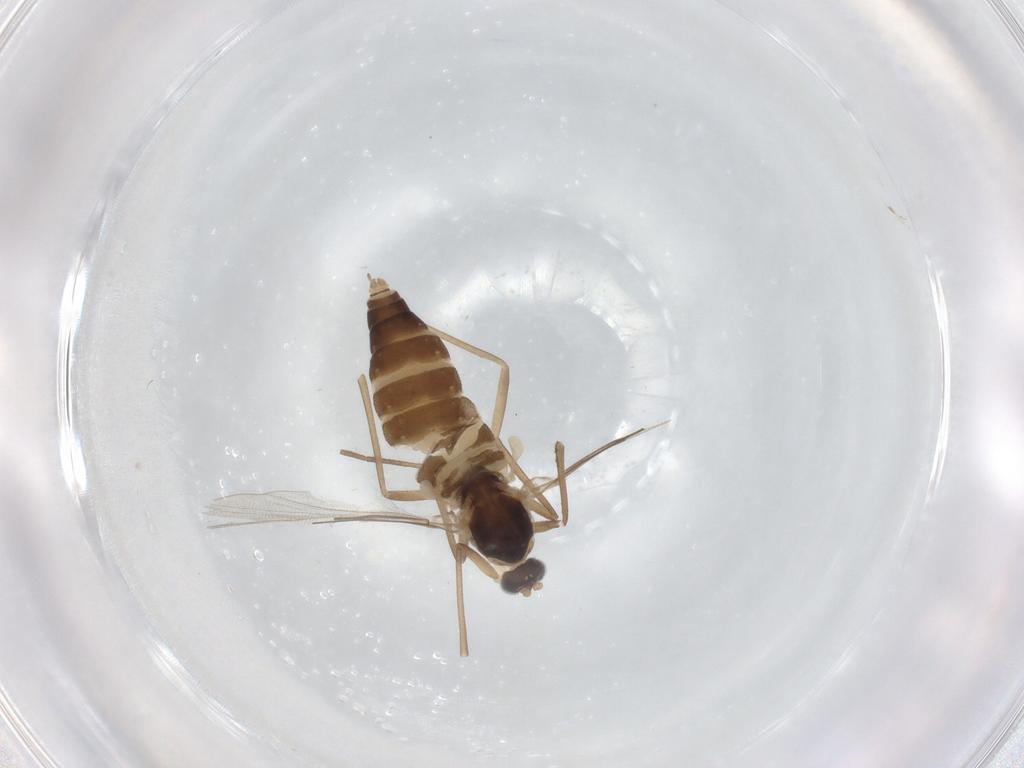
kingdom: Animalia
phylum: Arthropoda
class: Insecta
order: Diptera
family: Cecidomyiidae
